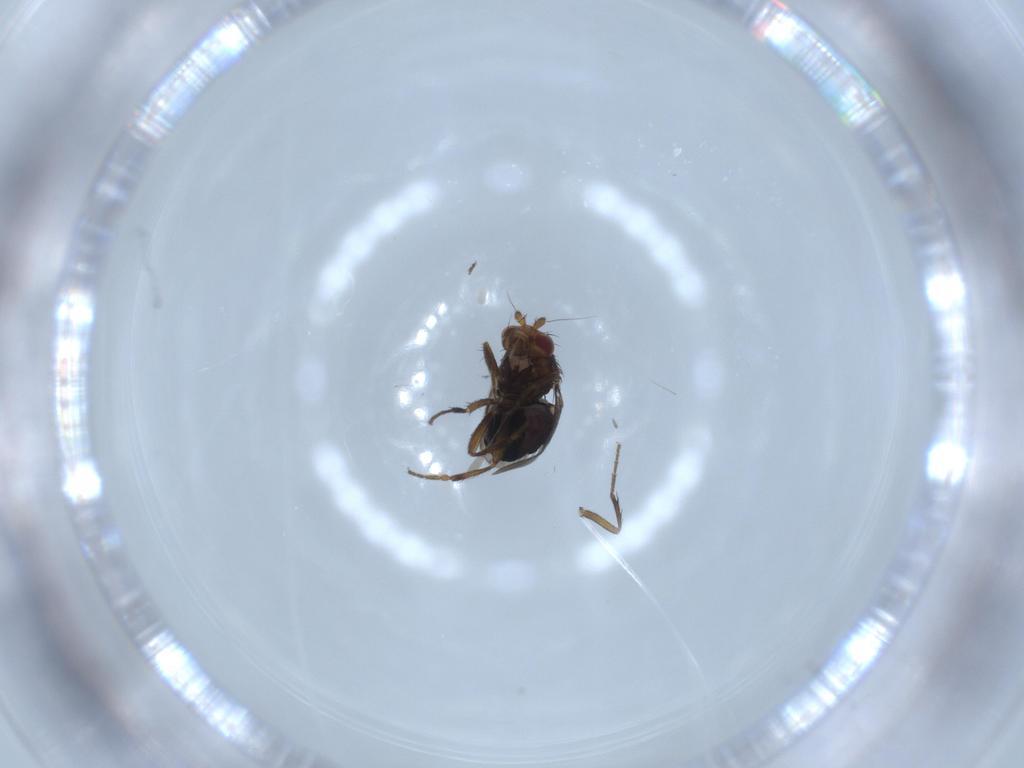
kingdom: Animalia
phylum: Arthropoda
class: Insecta
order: Diptera
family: Sphaeroceridae
